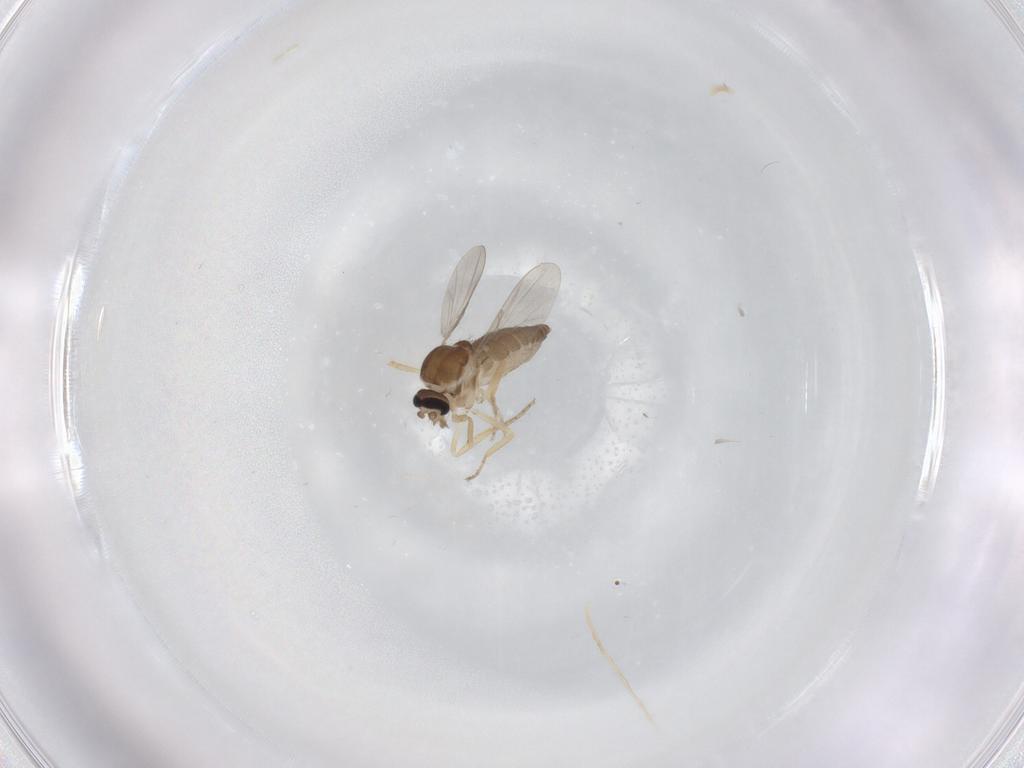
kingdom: Animalia
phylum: Arthropoda
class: Insecta
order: Diptera
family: Ceratopogonidae
